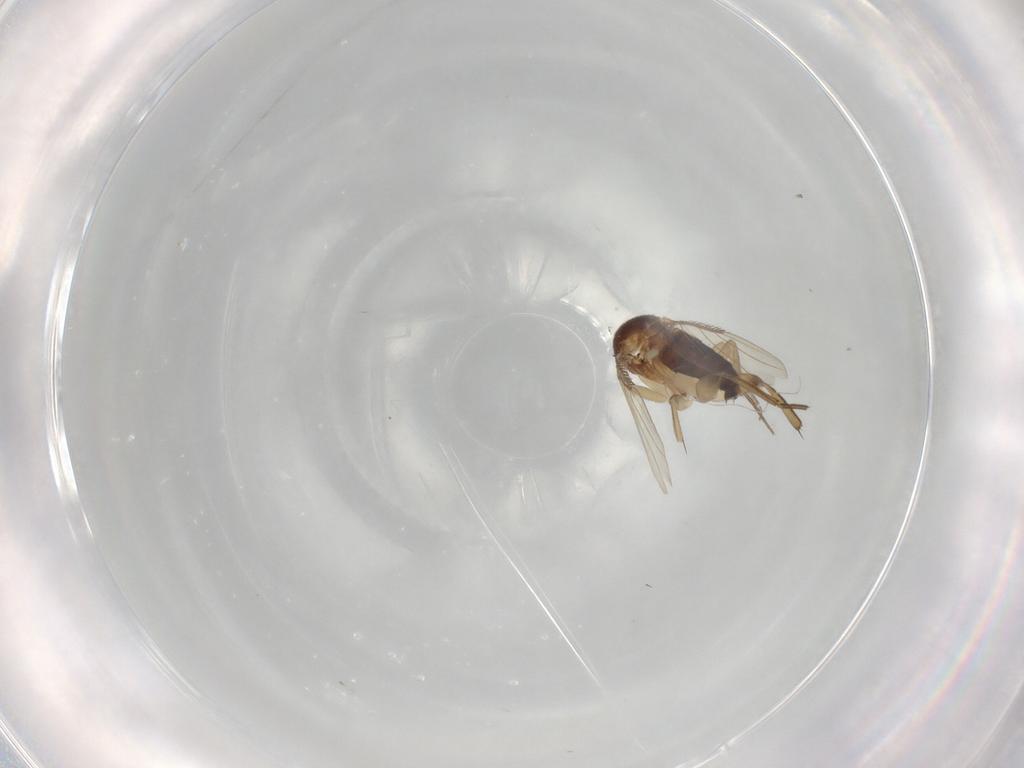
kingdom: Animalia
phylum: Arthropoda
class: Insecta
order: Diptera
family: Phoridae
